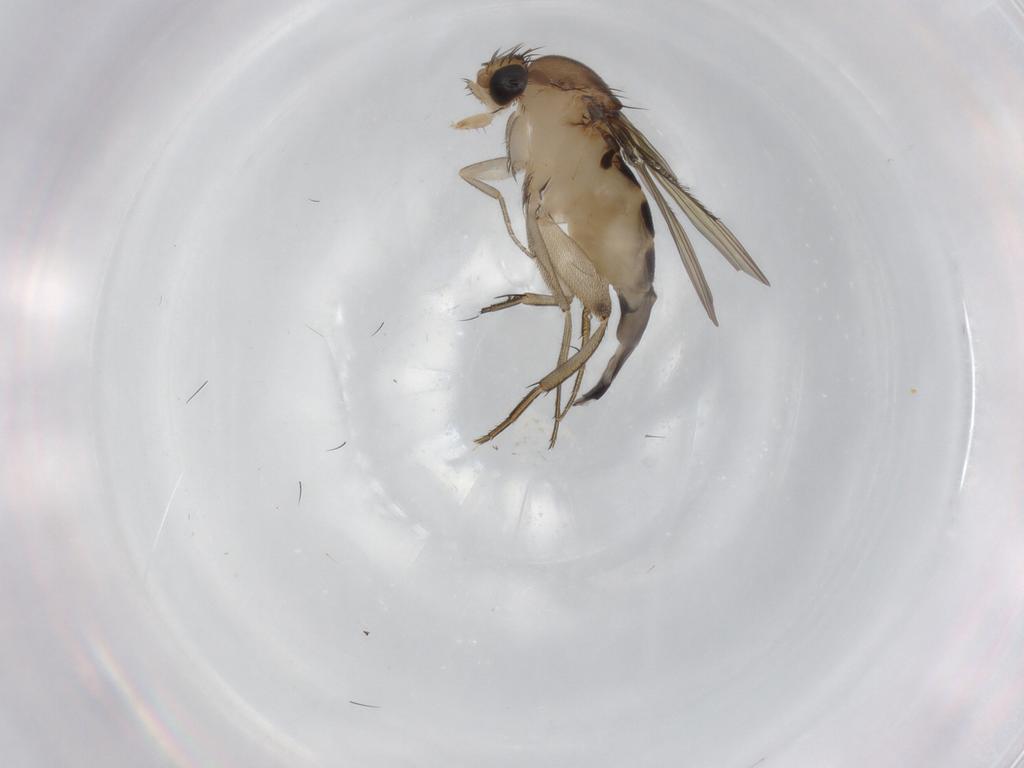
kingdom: Animalia
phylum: Arthropoda
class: Insecta
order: Diptera
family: Phoridae
